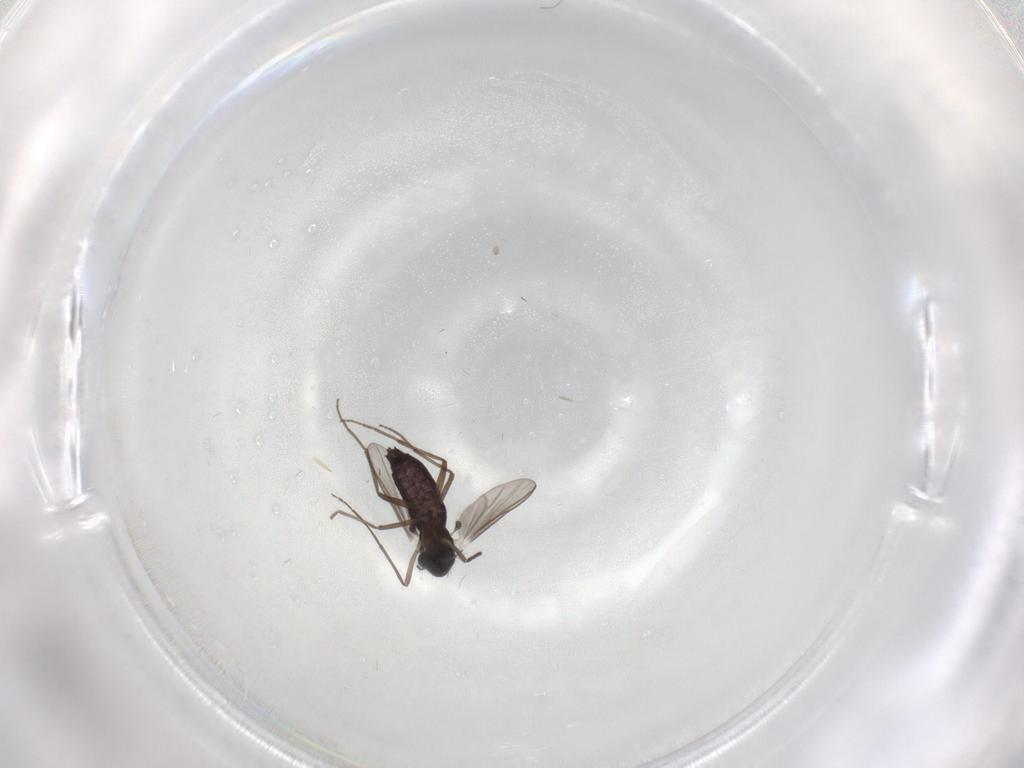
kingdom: Animalia
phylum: Arthropoda
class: Insecta
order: Diptera
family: Chironomidae
